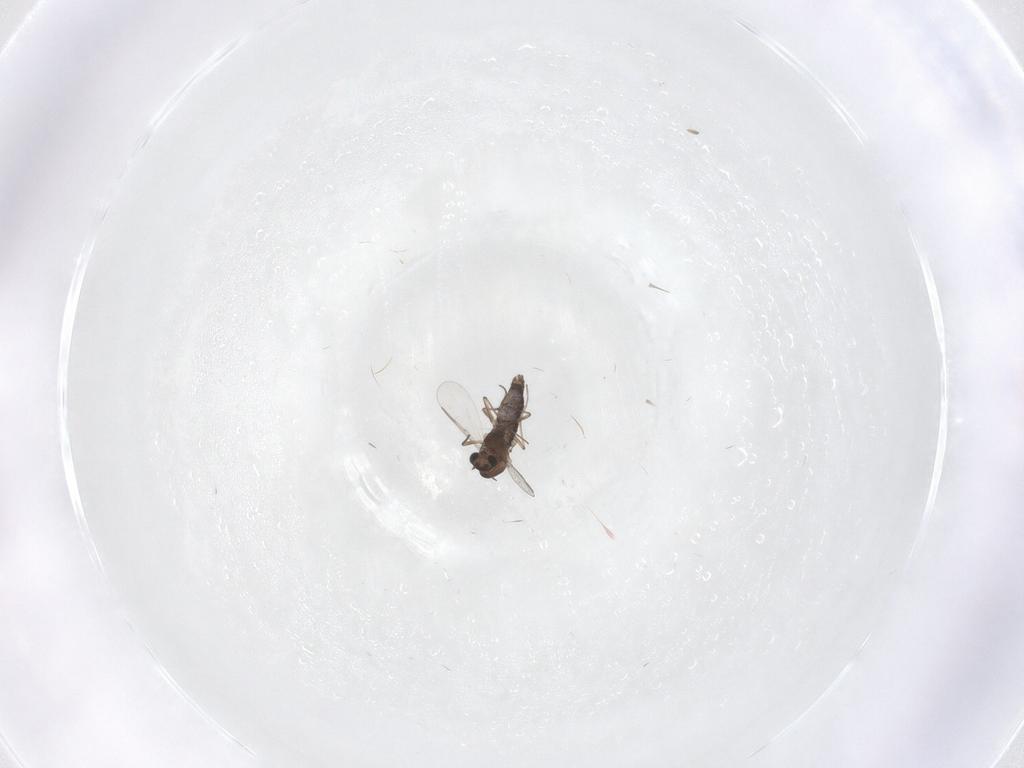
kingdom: Animalia
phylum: Arthropoda
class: Insecta
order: Diptera
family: Chironomidae
